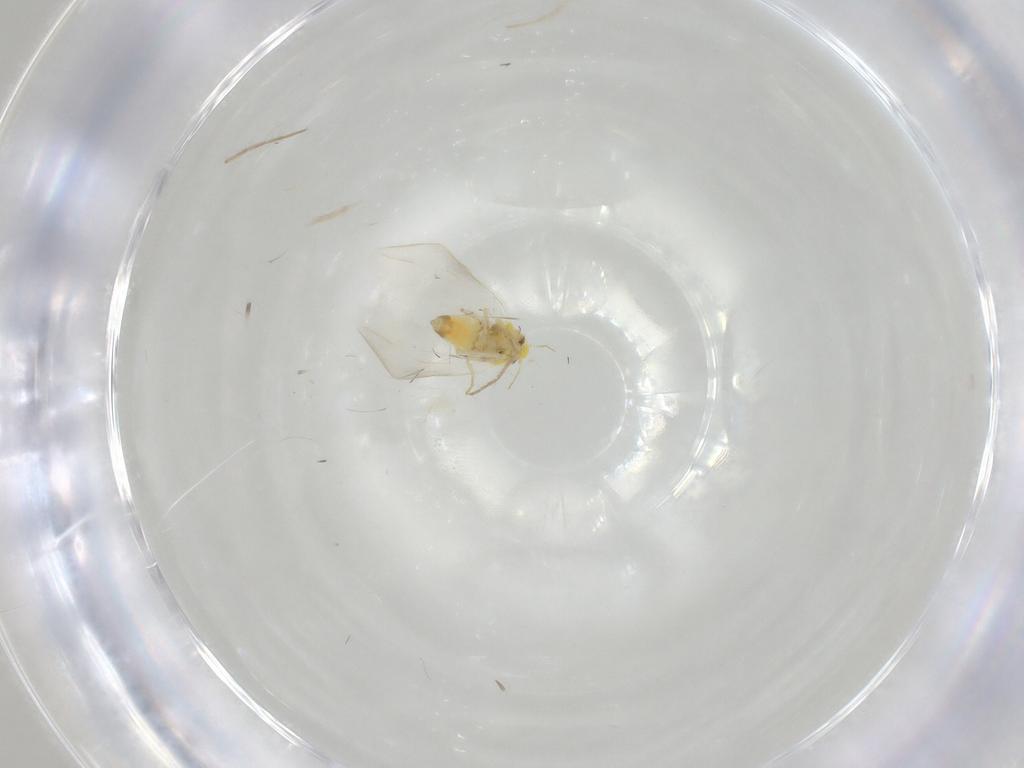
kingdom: Animalia
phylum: Arthropoda
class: Insecta
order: Hemiptera
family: Aleyrodidae
